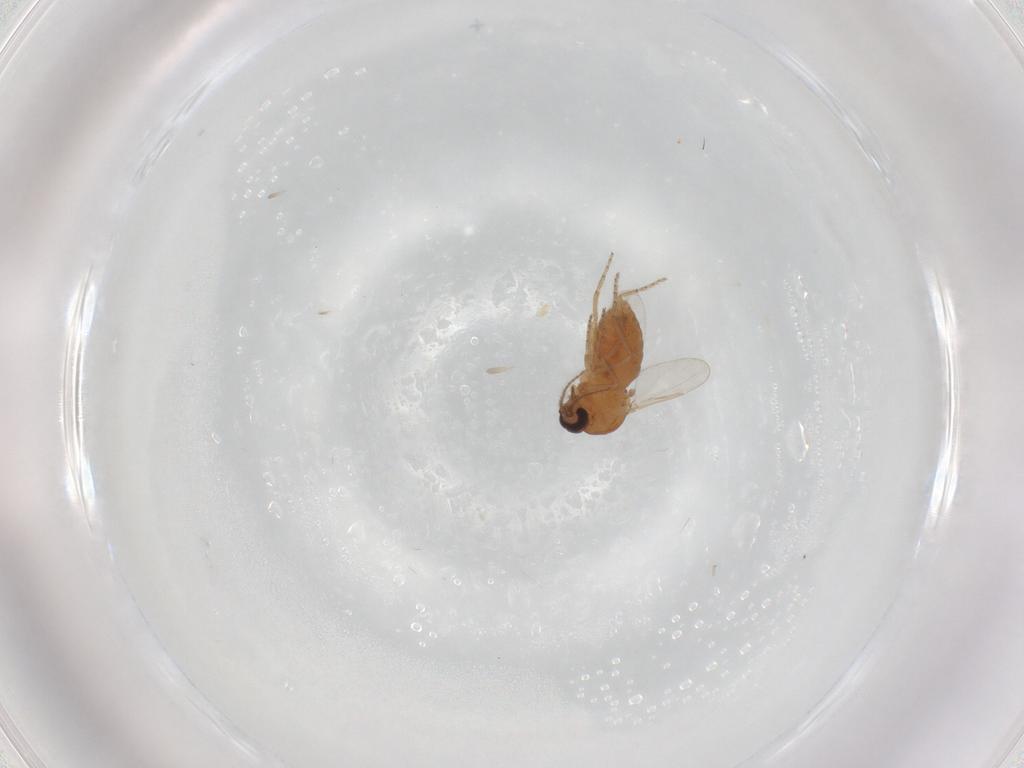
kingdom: Animalia
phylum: Arthropoda
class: Insecta
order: Diptera
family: Ceratopogonidae
